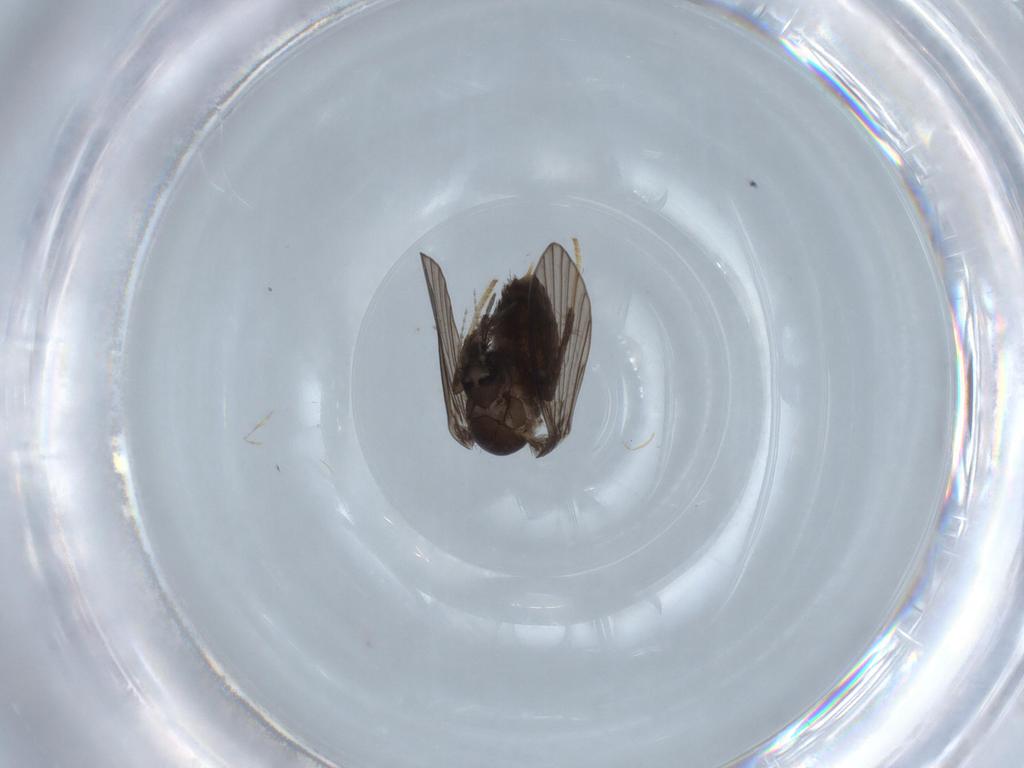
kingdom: Animalia
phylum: Arthropoda
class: Insecta
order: Diptera
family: Psychodidae
